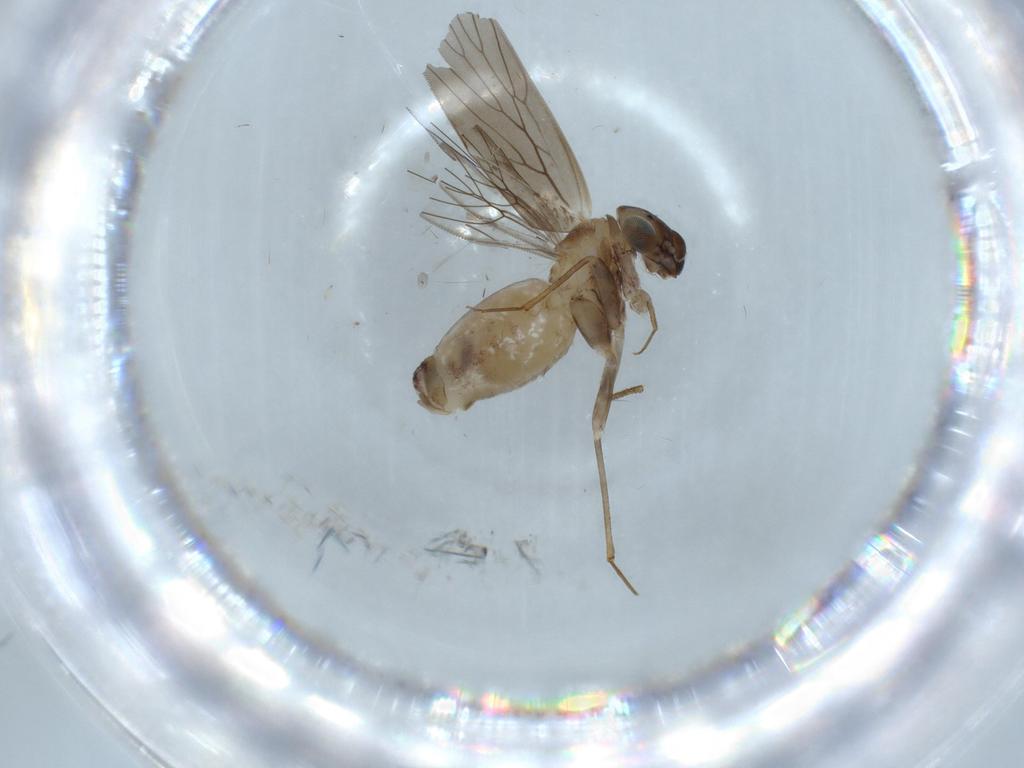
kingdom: Animalia
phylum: Arthropoda
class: Insecta
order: Psocodea
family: Lepidopsocidae
